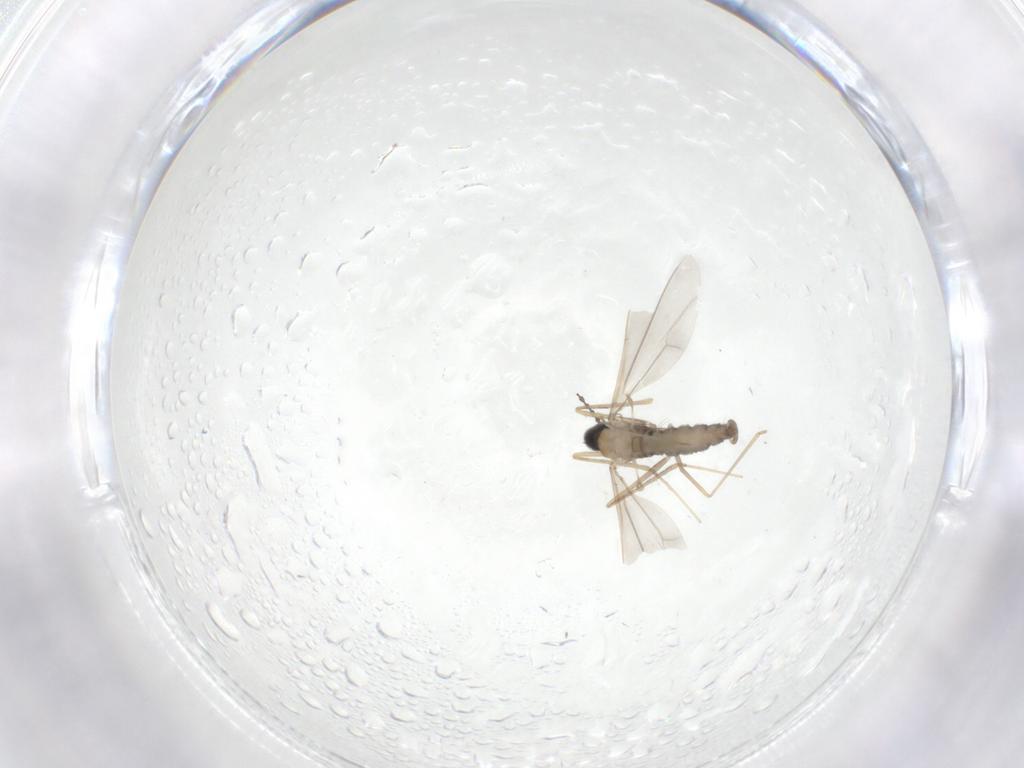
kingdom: Animalia
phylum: Arthropoda
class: Insecta
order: Diptera
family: Cecidomyiidae
